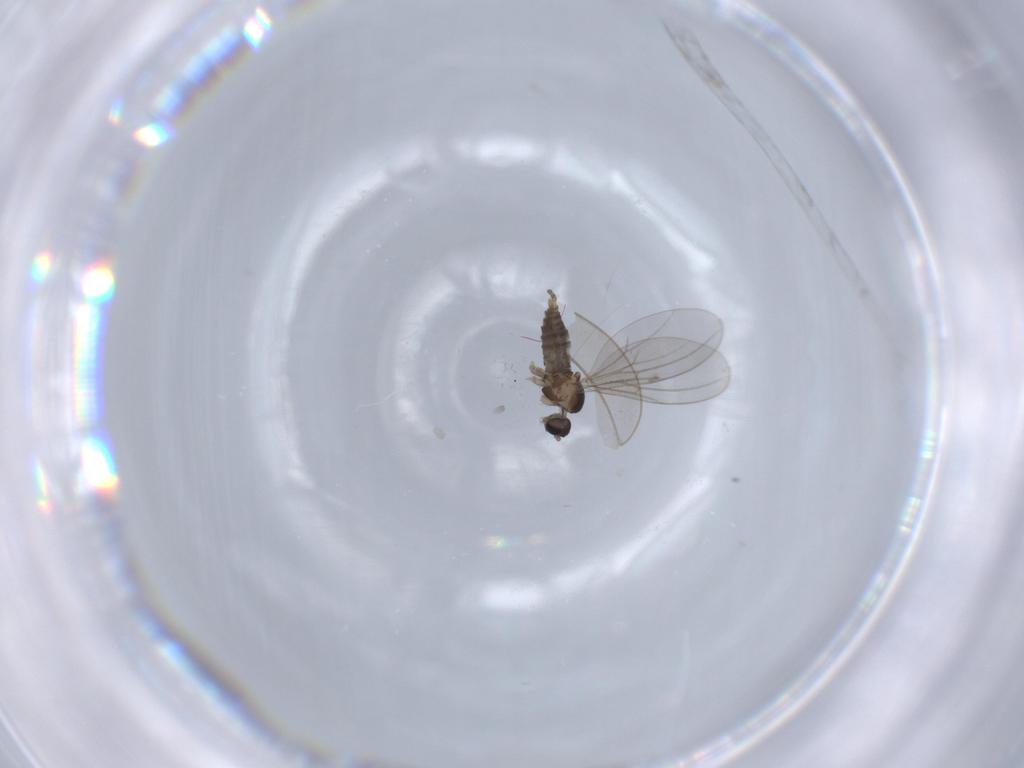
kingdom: Animalia
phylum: Arthropoda
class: Insecta
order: Diptera
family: Cecidomyiidae
